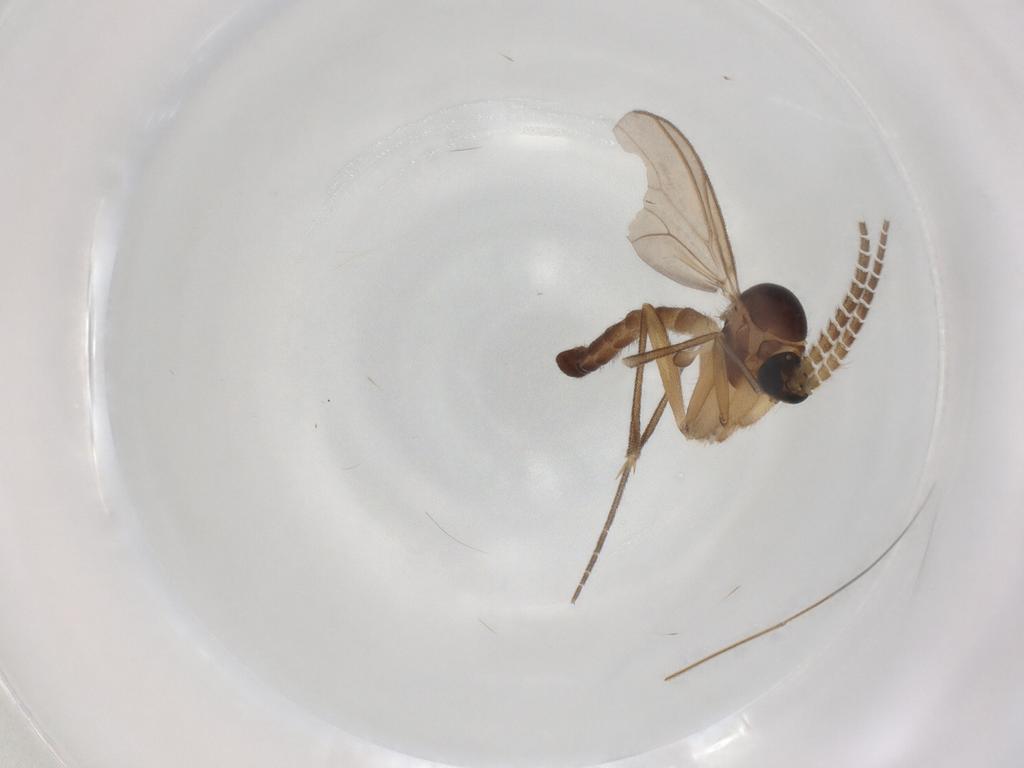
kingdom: Animalia
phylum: Arthropoda
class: Insecta
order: Diptera
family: Mycetophilidae
